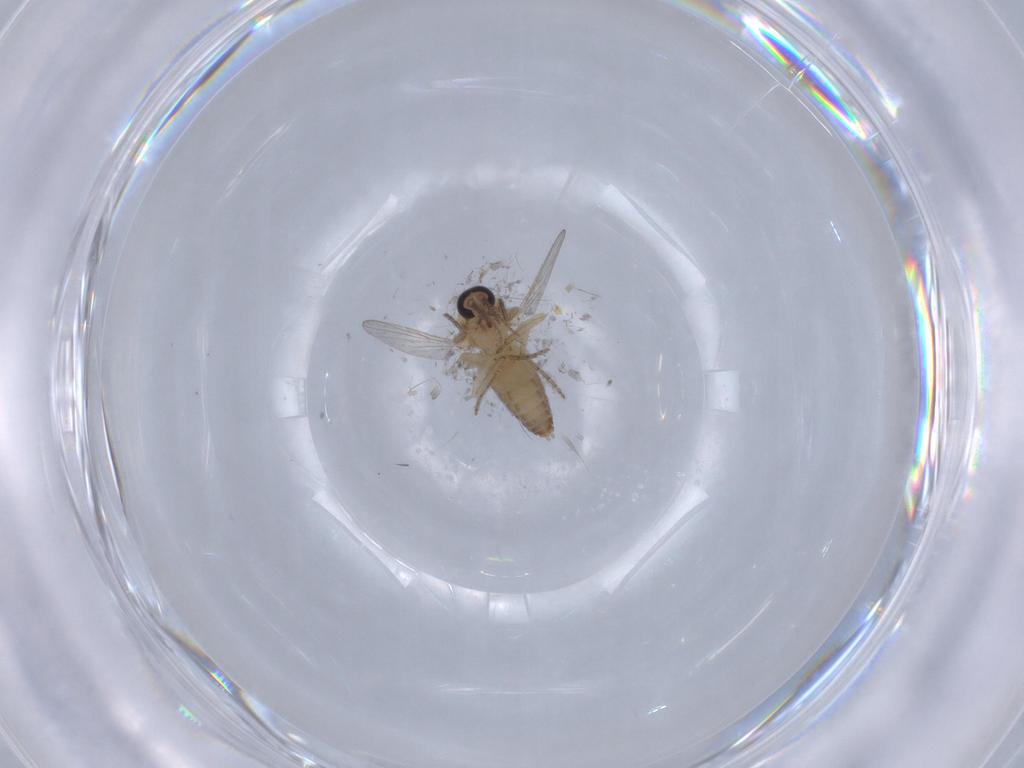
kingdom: Animalia
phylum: Arthropoda
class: Insecta
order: Diptera
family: Ceratopogonidae
